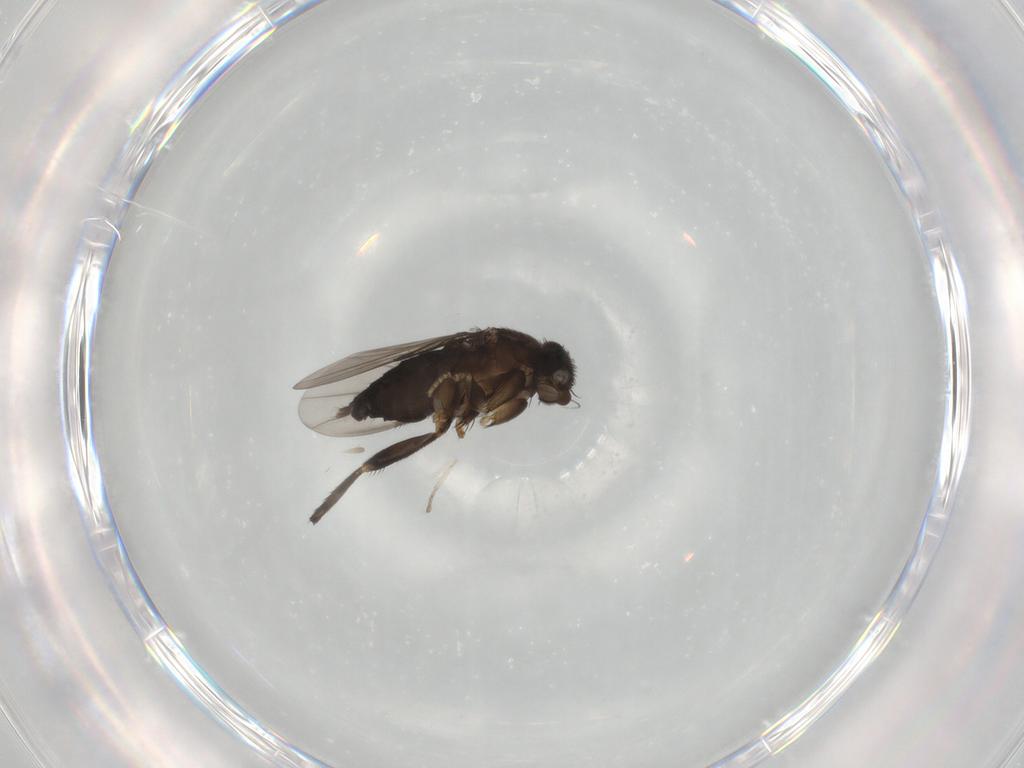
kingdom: Animalia
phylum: Arthropoda
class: Insecta
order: Diptera
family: Phoridae
